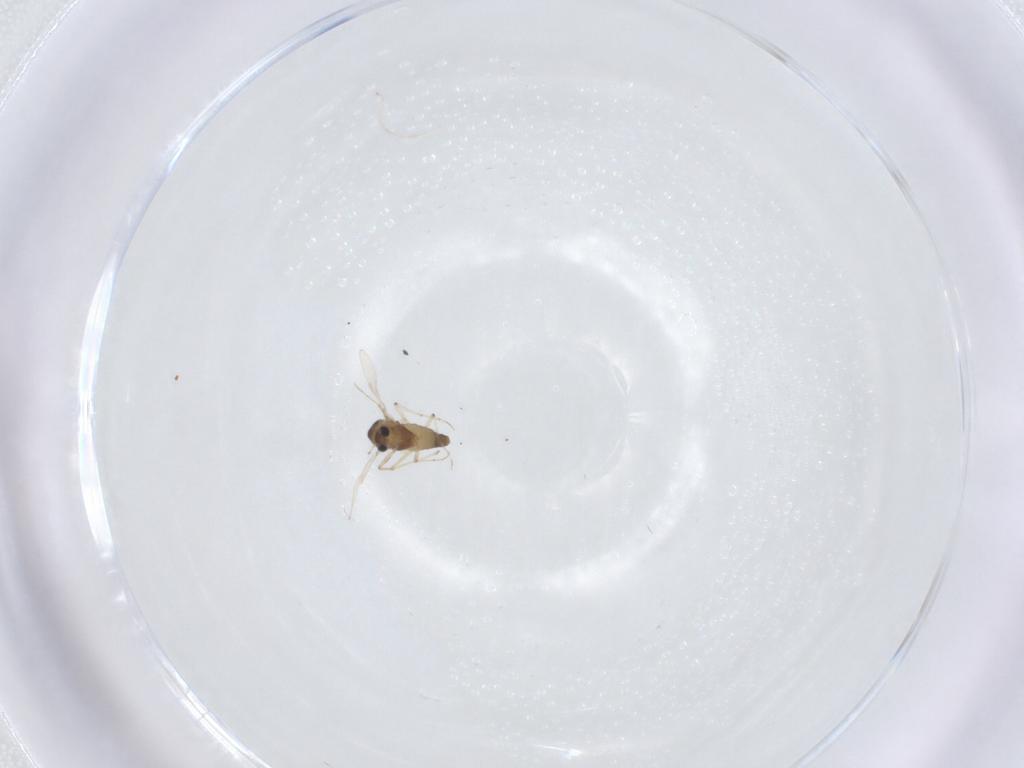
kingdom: Animalia
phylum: Arthropoda
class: Insecta
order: Diptera
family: Chironomidae
